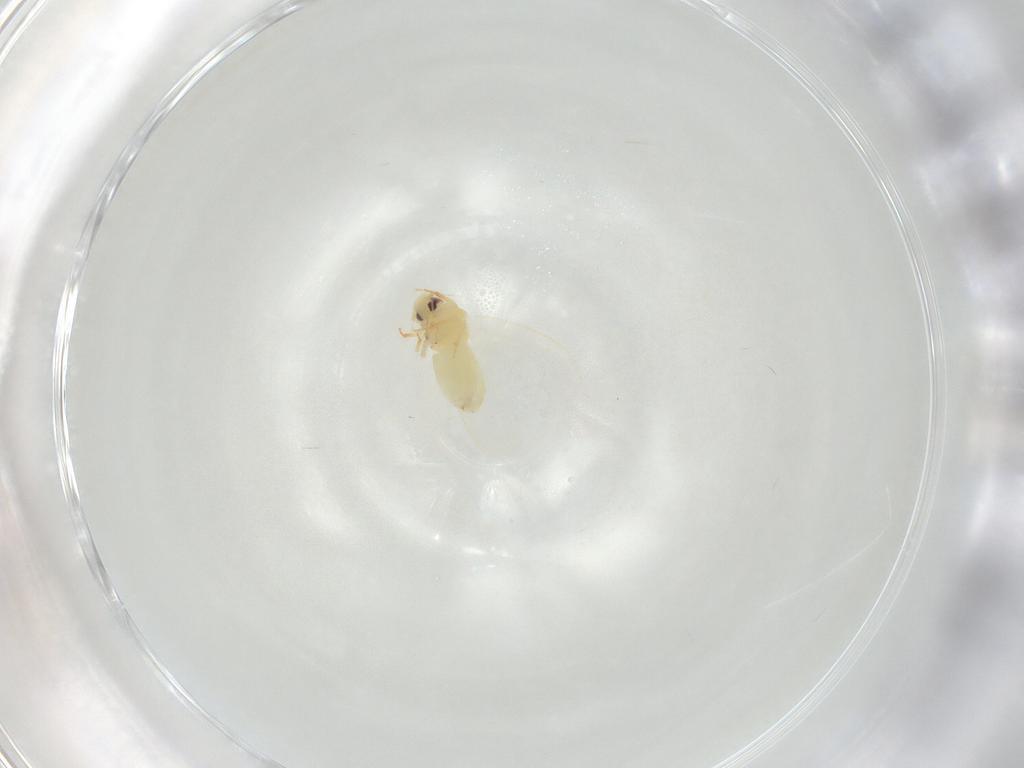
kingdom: Animalia
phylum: Arthropoda
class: Insecta
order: Hemiptera
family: Aleyrodidae
